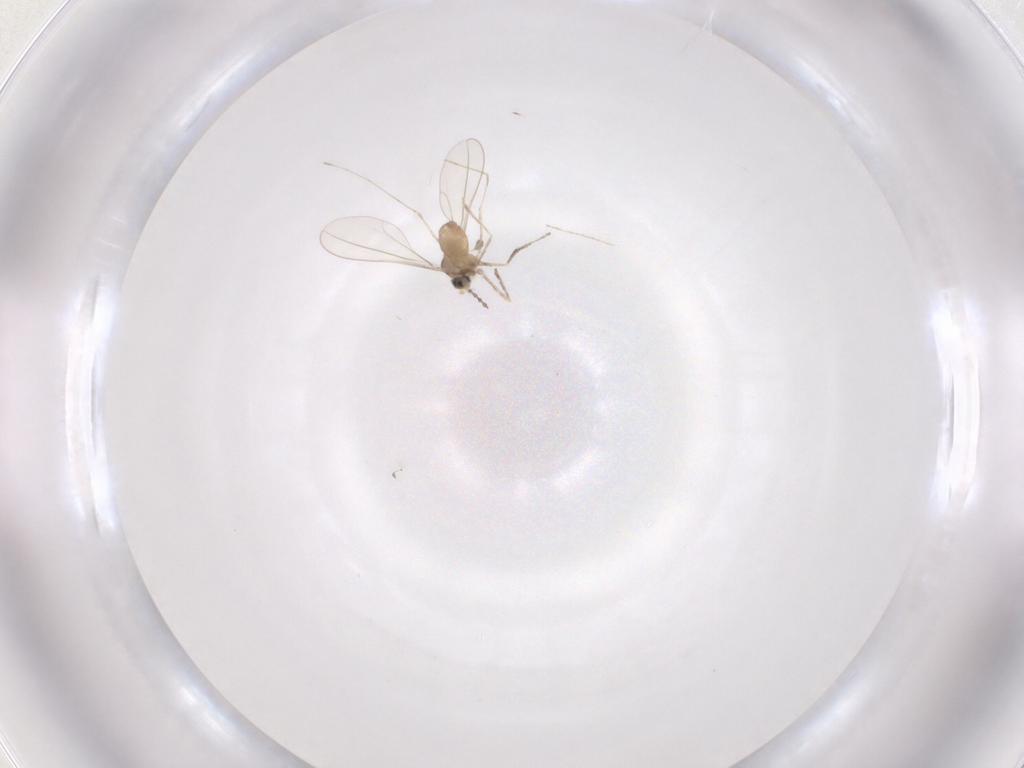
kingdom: Animalia
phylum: Arthropoda
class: Insecta
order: Diptera
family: Cecidomyiidae
